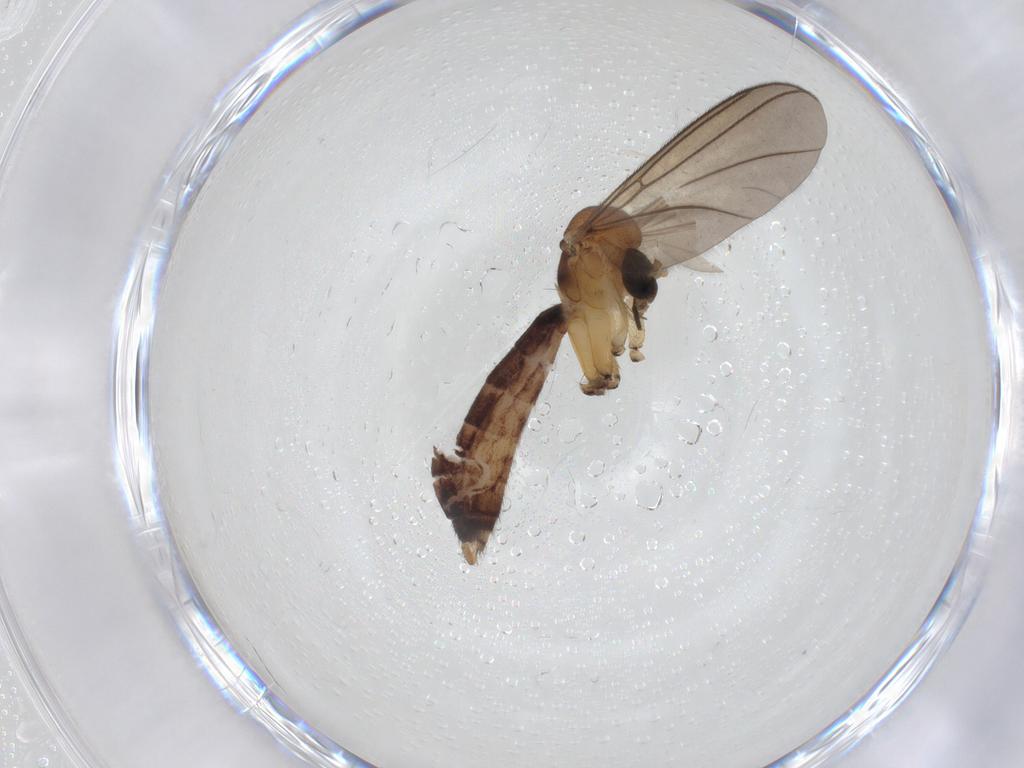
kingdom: Animalia
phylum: Arthropoda
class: Insecta
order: Diptera
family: Mycetophilidae
